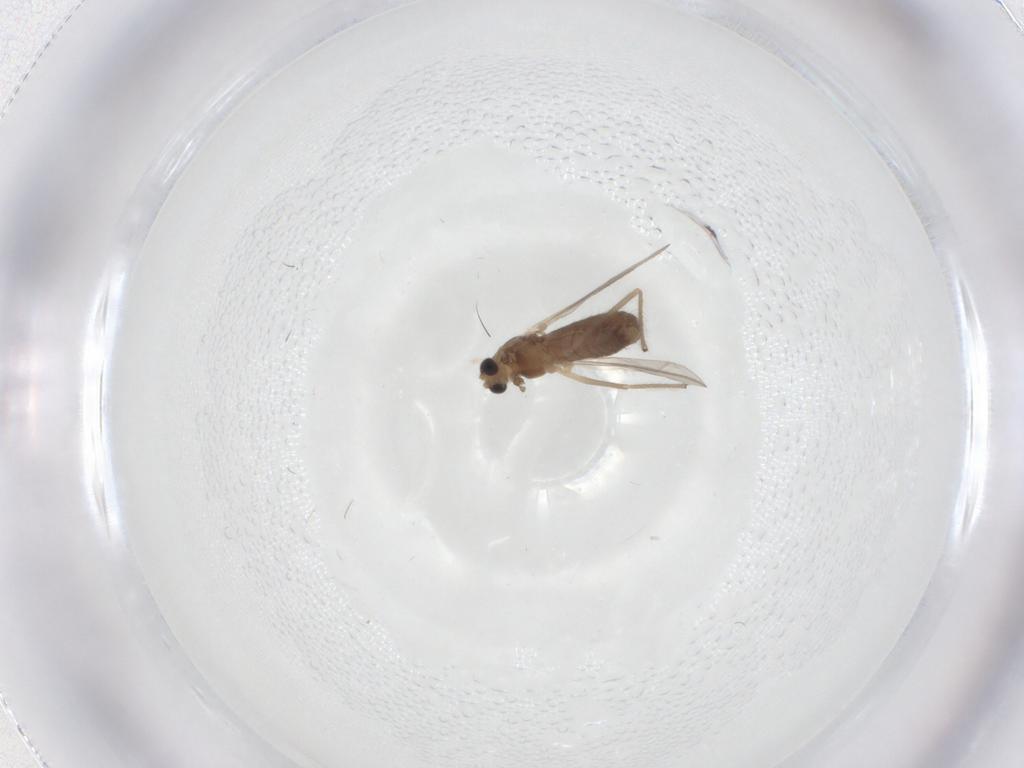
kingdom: Animalia
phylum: Arthropoda
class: Insecta
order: Diptera
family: Chironomidae
